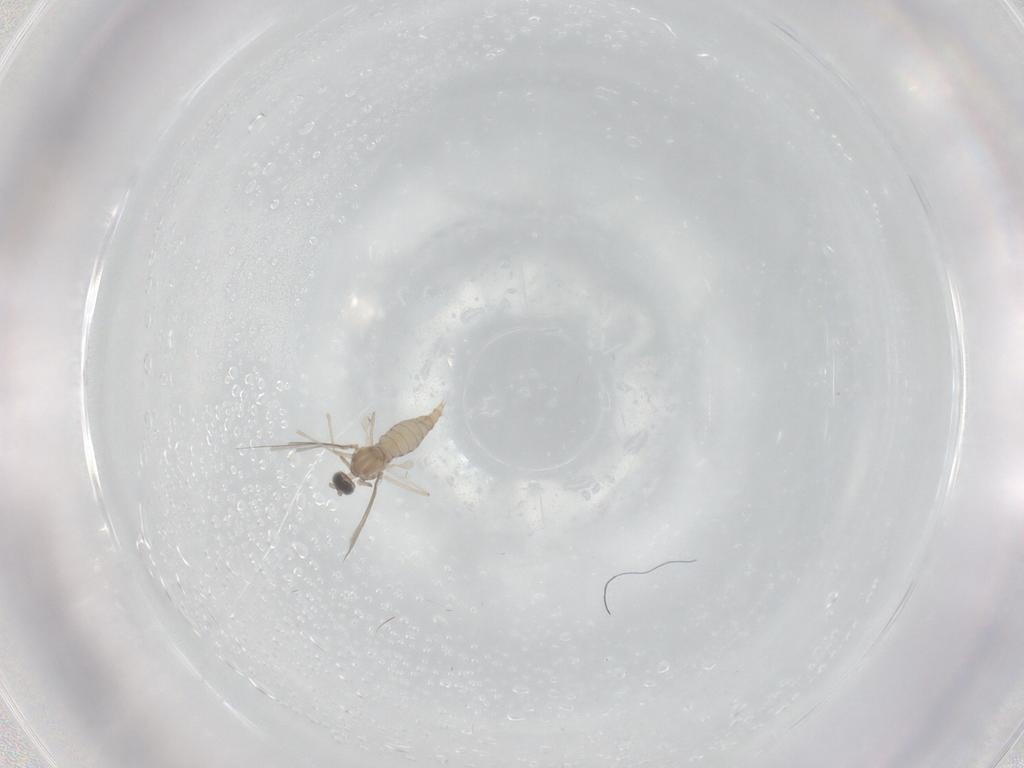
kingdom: Animalia
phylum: Arthropoda
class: Insecta
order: Diptera
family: Cecidomyiidae
